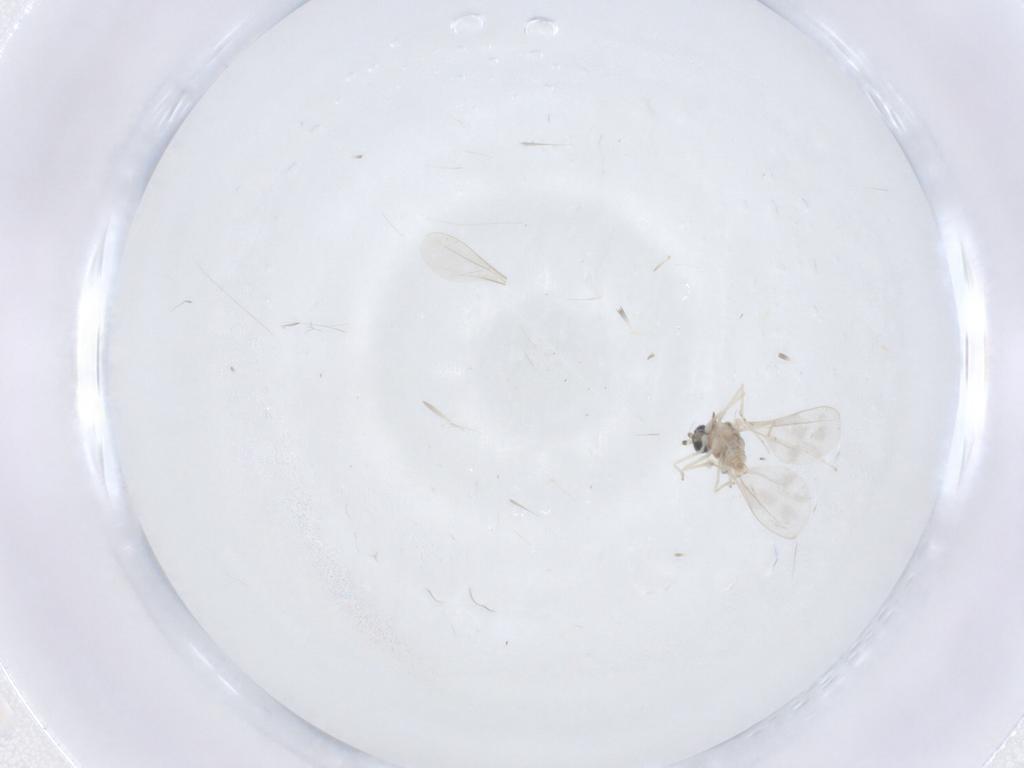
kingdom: Animalia
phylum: Arthropoda
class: Insecta
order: Diptera
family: Cecidomyiidae
